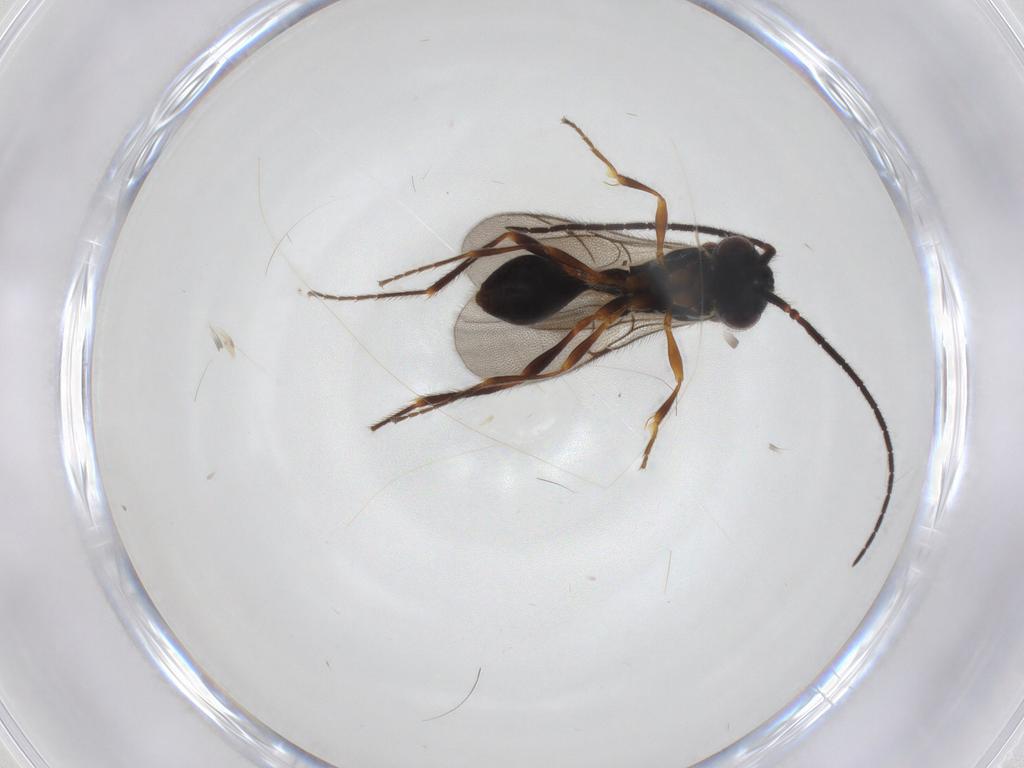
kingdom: Animalia
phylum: Arthropoda
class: Insecta
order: Hymenoptera
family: Diapriidae
